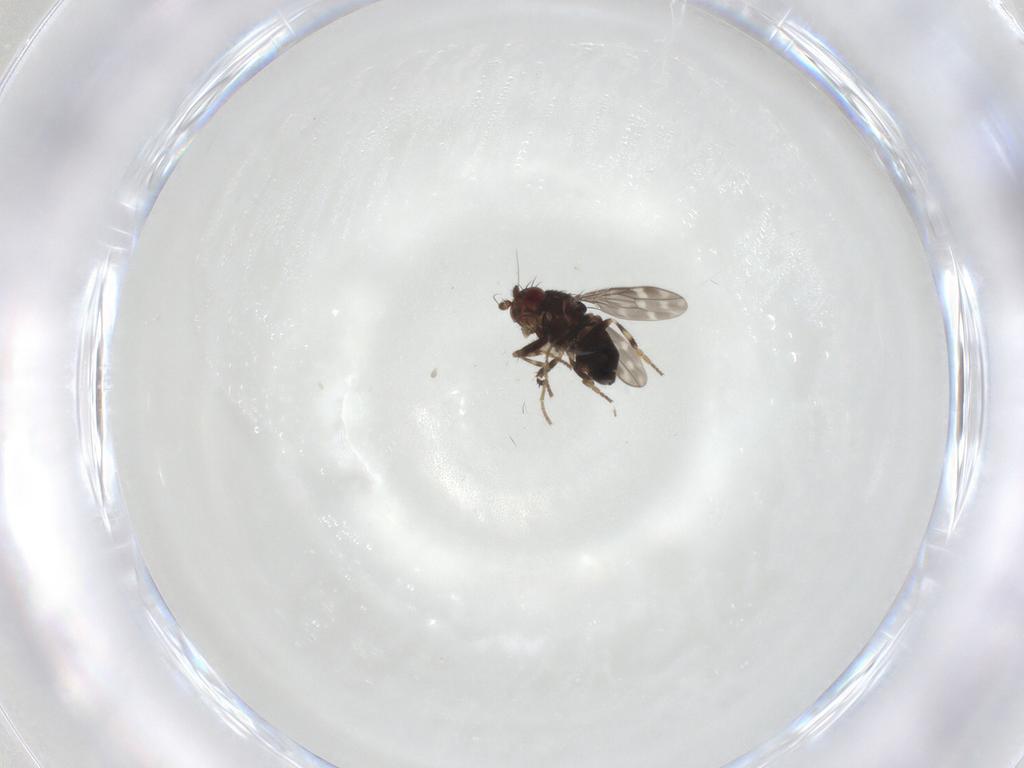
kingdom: Animalia
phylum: Arthropoda
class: Insecta
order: Diptera
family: Sphaeroceridae
